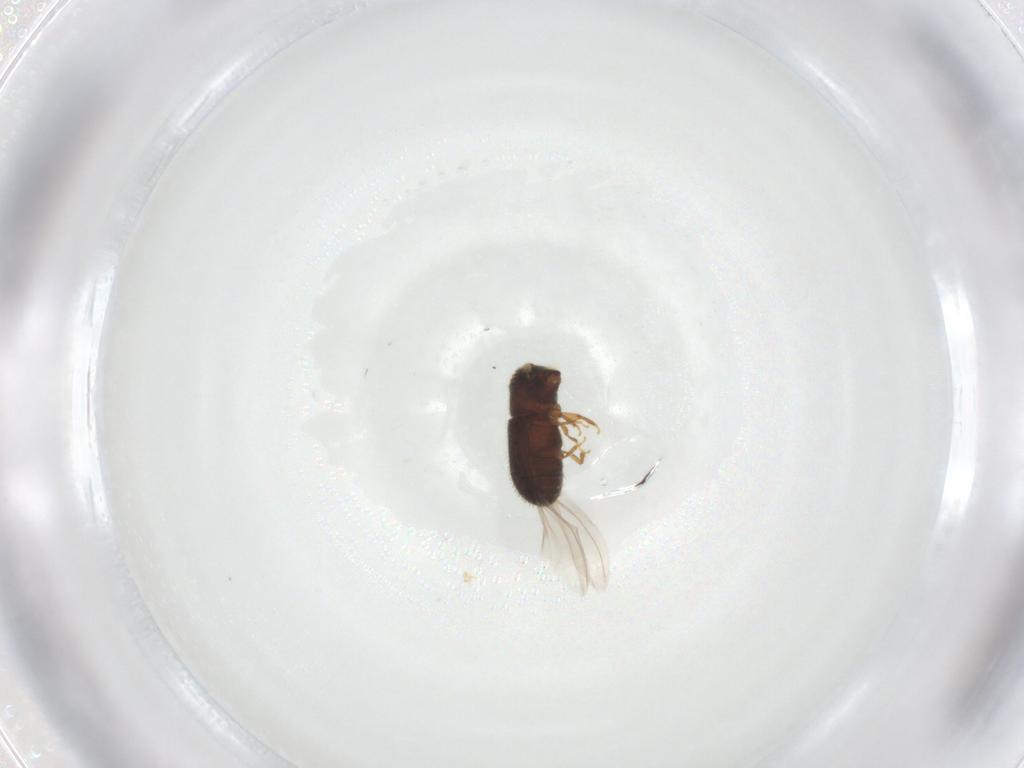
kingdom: Animalia
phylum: Arthropoda
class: Insecta
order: Coleoptera
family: Curculionidae
